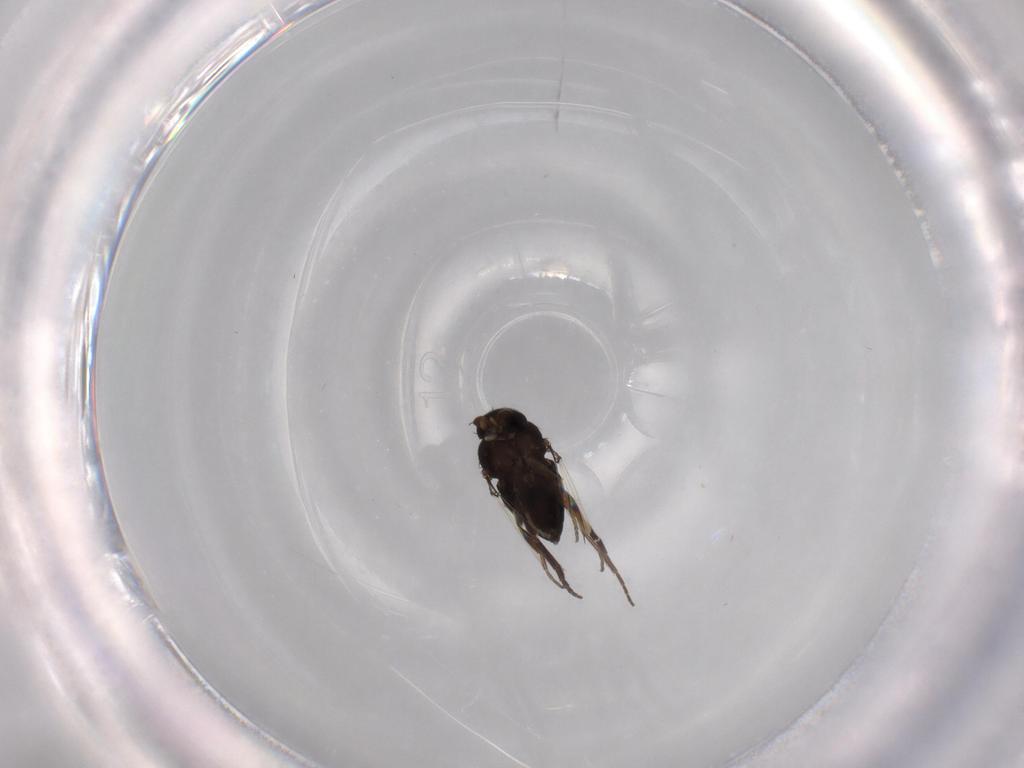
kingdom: Animalia
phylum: Arthropoda
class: Insecta
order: Diptera
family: Phoridae
